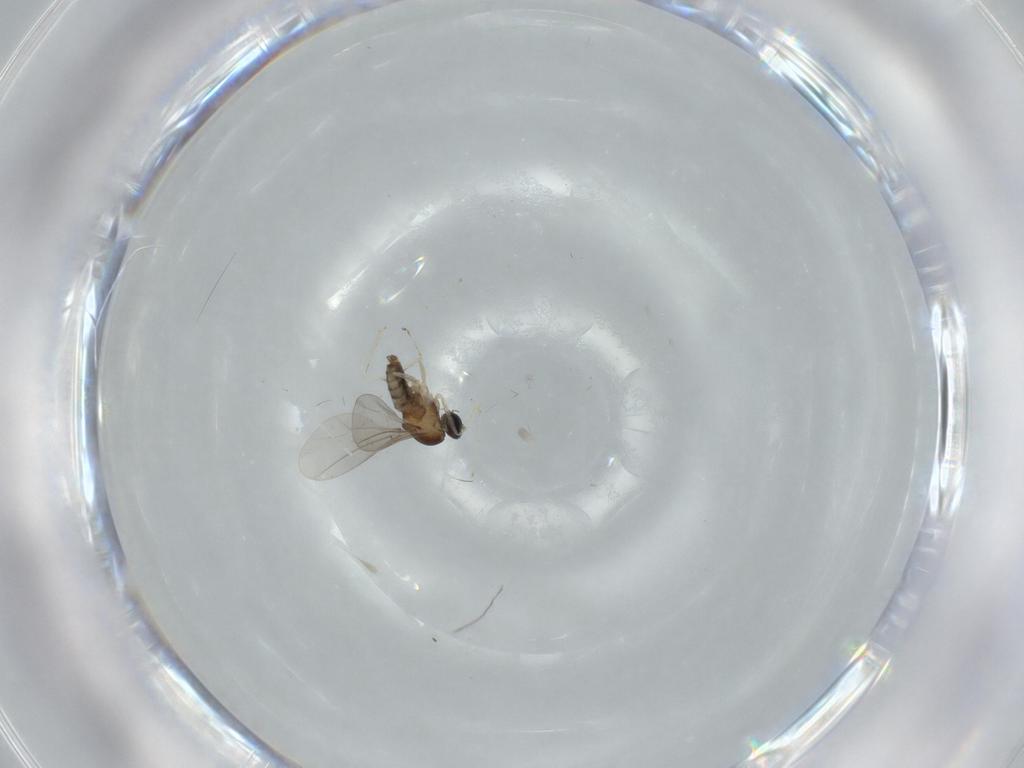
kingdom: Animalia
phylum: Arthropoda
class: Insecta
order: Diptera
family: Cecidomyiidae
